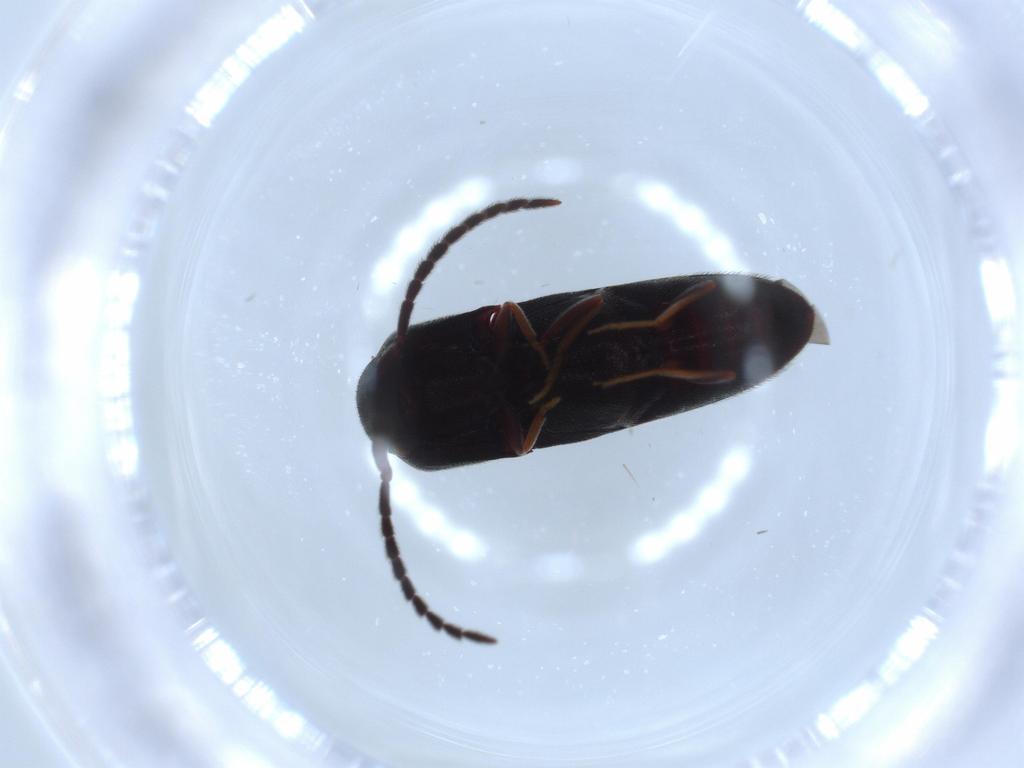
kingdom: Animalia
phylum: Arthropoda
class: Insecta
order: Coleoptera
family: Eucnemidae
